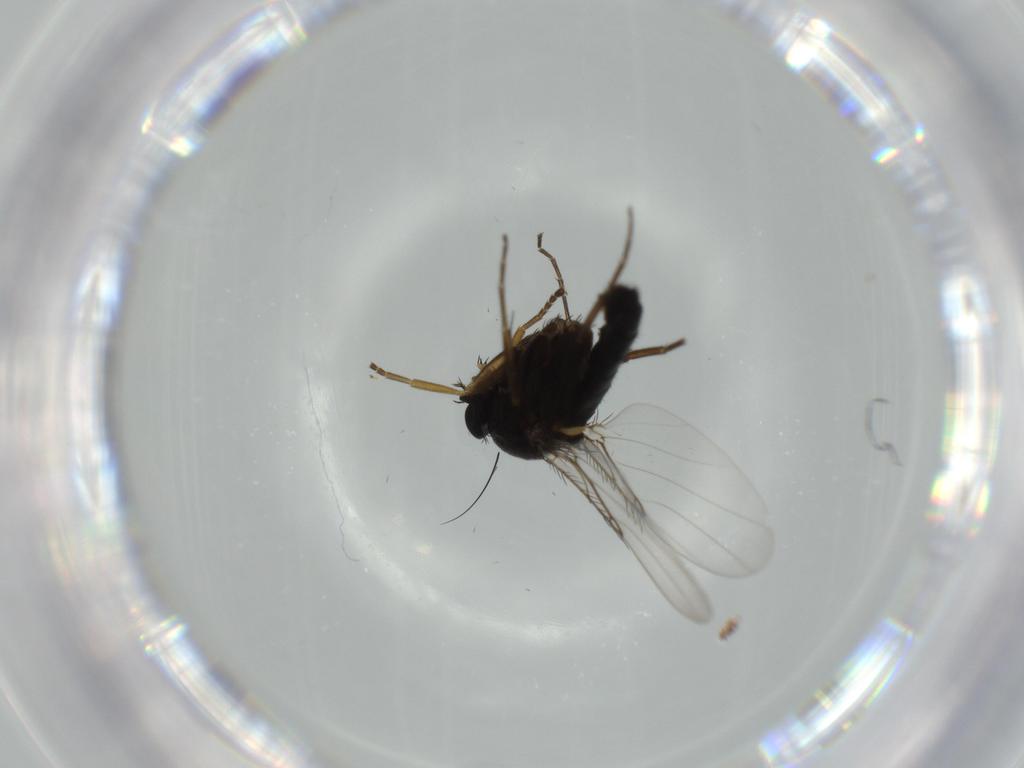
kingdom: Animalia
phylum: Arthropoda
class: Insecta
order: Diptera
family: Phoridae
